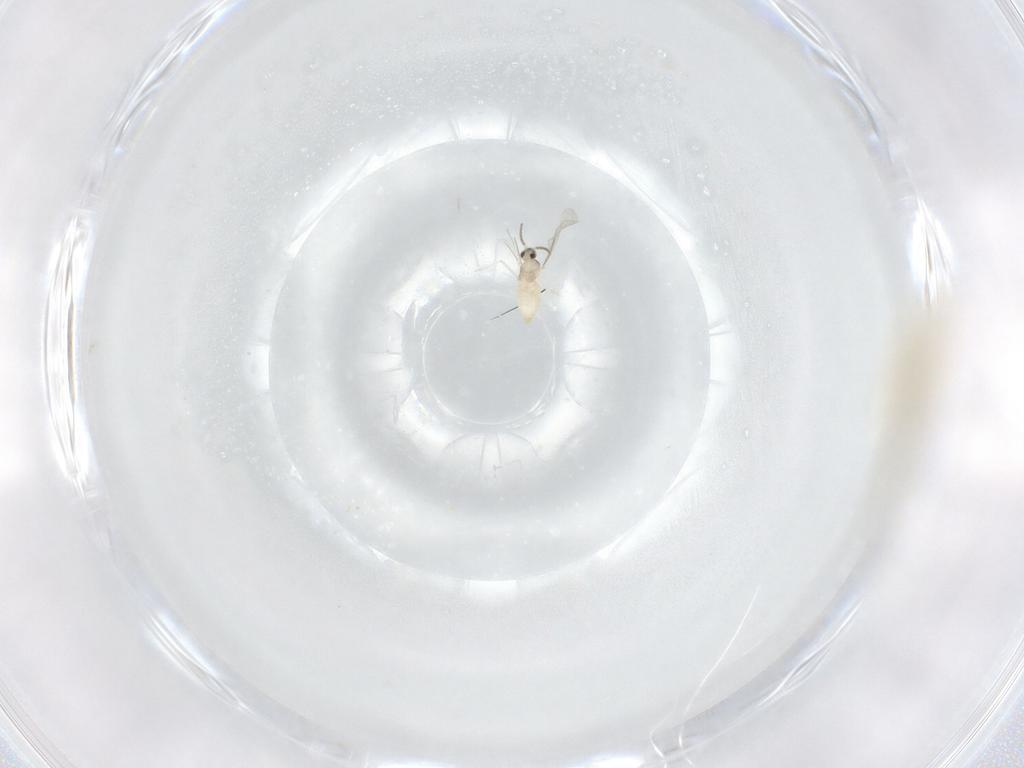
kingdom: Animalia
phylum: Arthropoda
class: Insecta
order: Diptera
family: Cecidomyiidae
